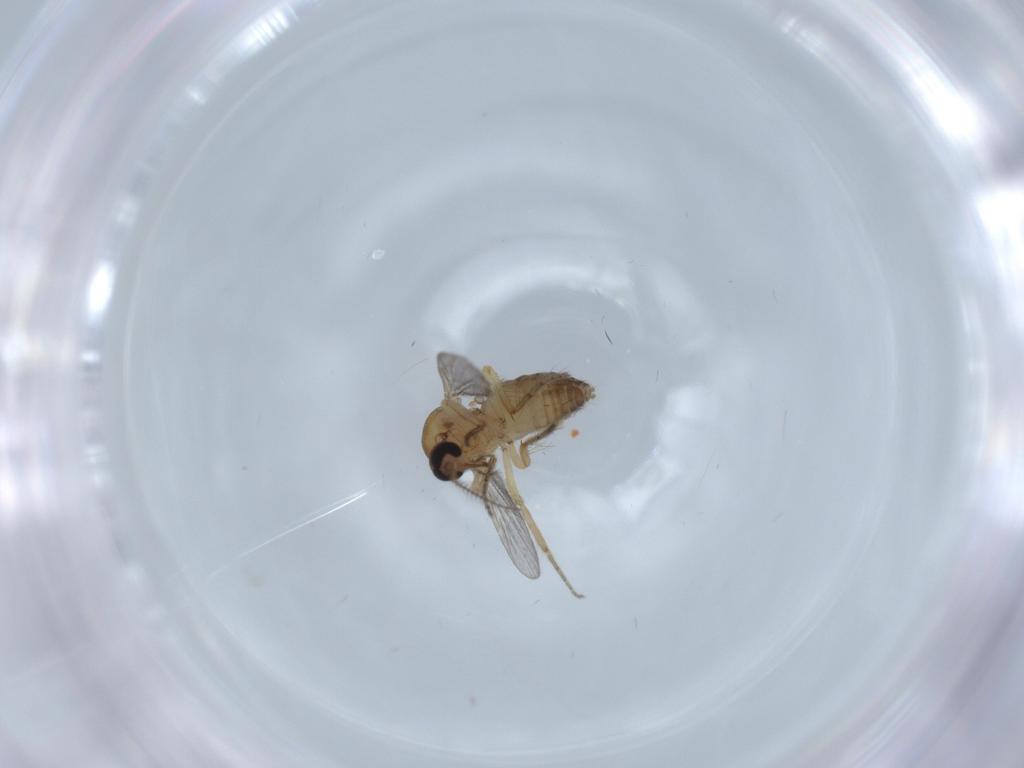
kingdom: Animalia
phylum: Arthropoda
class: Insecta
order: Diptera
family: Ceratopogonidae
